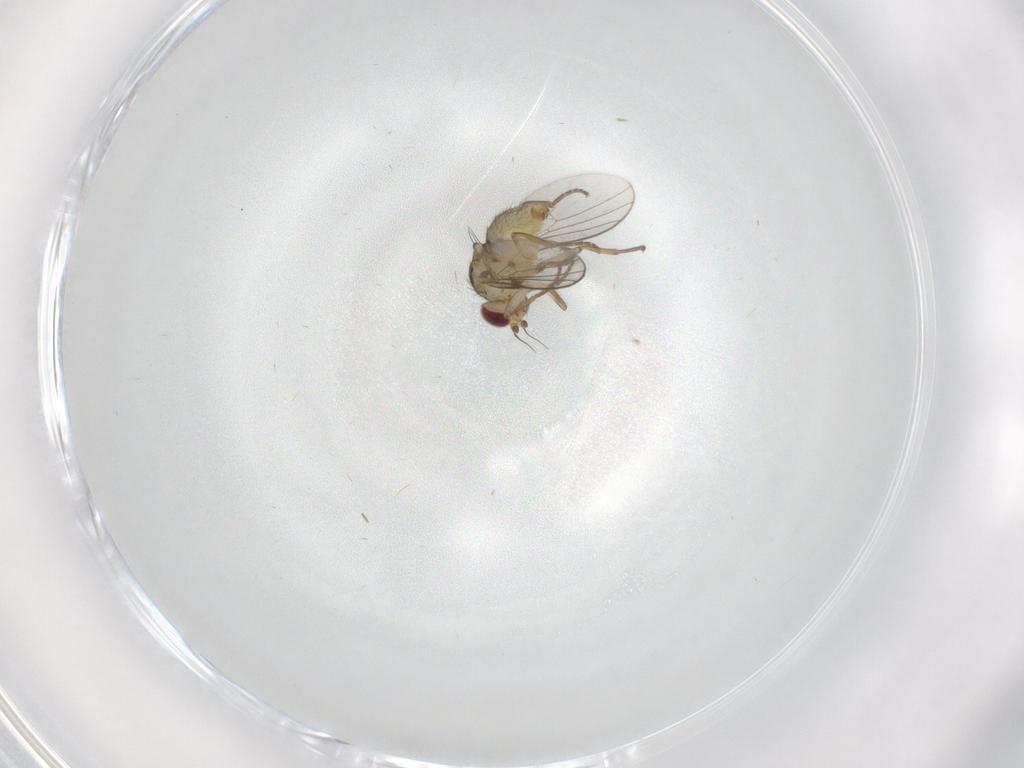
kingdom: Animalia
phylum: Arthropoda
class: Insecta
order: Diptera
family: Agromyzidae
